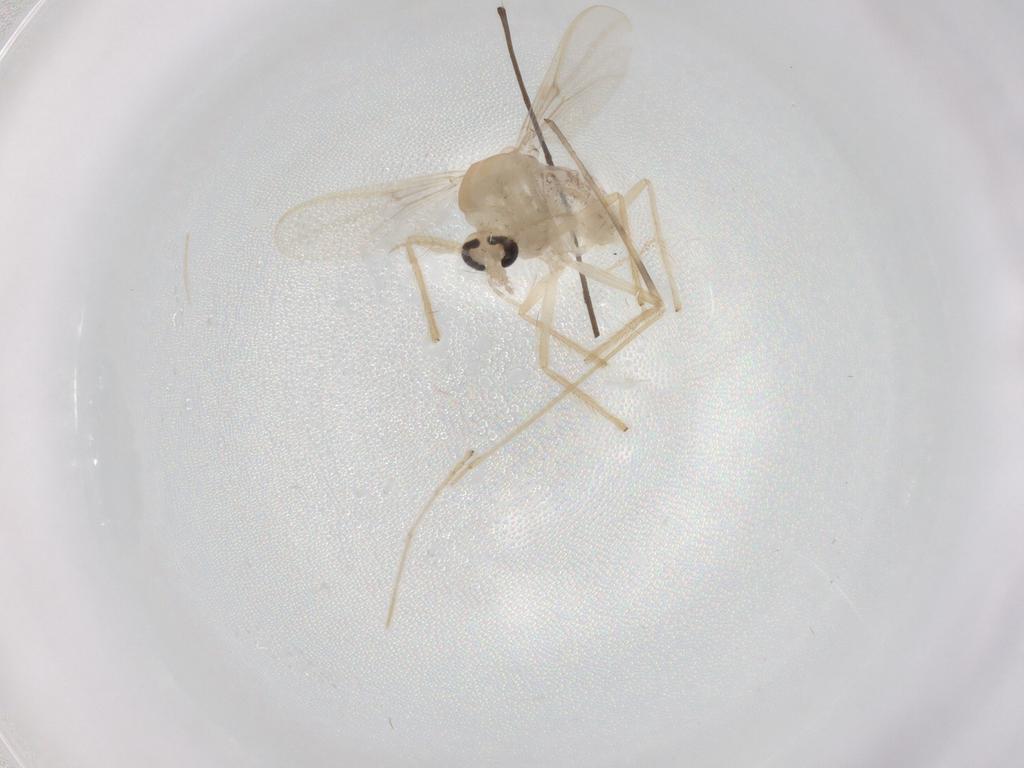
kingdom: Animalia
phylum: Arthropoda
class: Insecta
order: Diptera
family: Chironomidae
